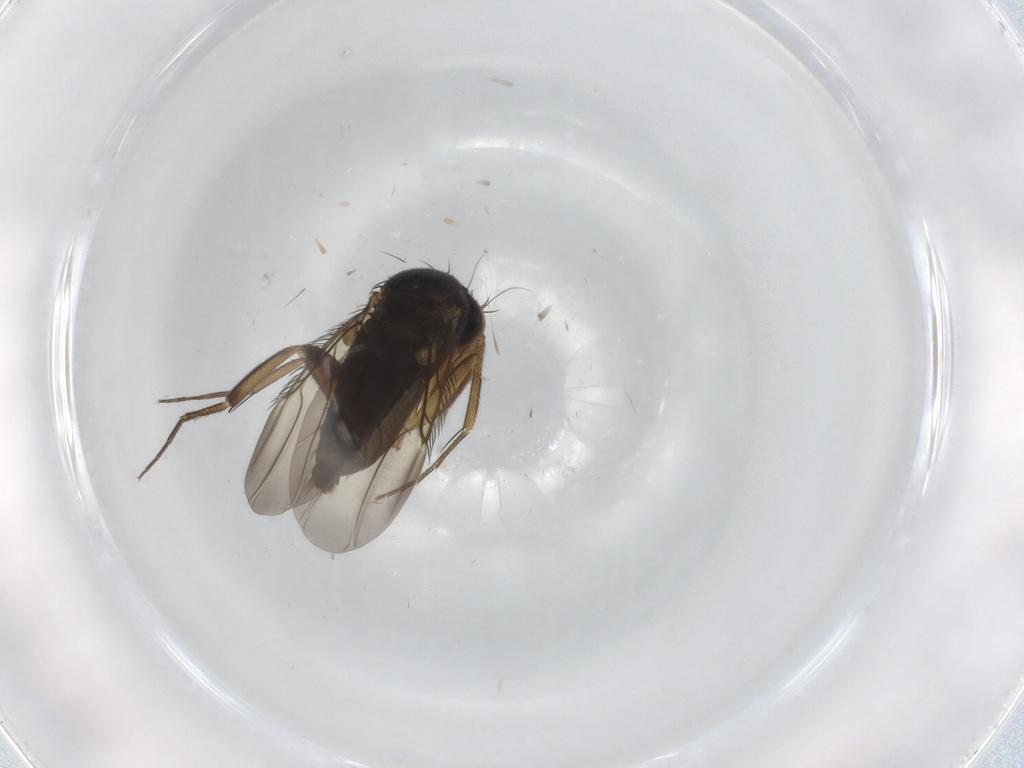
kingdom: Animalia
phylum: Arthropoda
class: Insecta
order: Diptera
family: Phoridae
